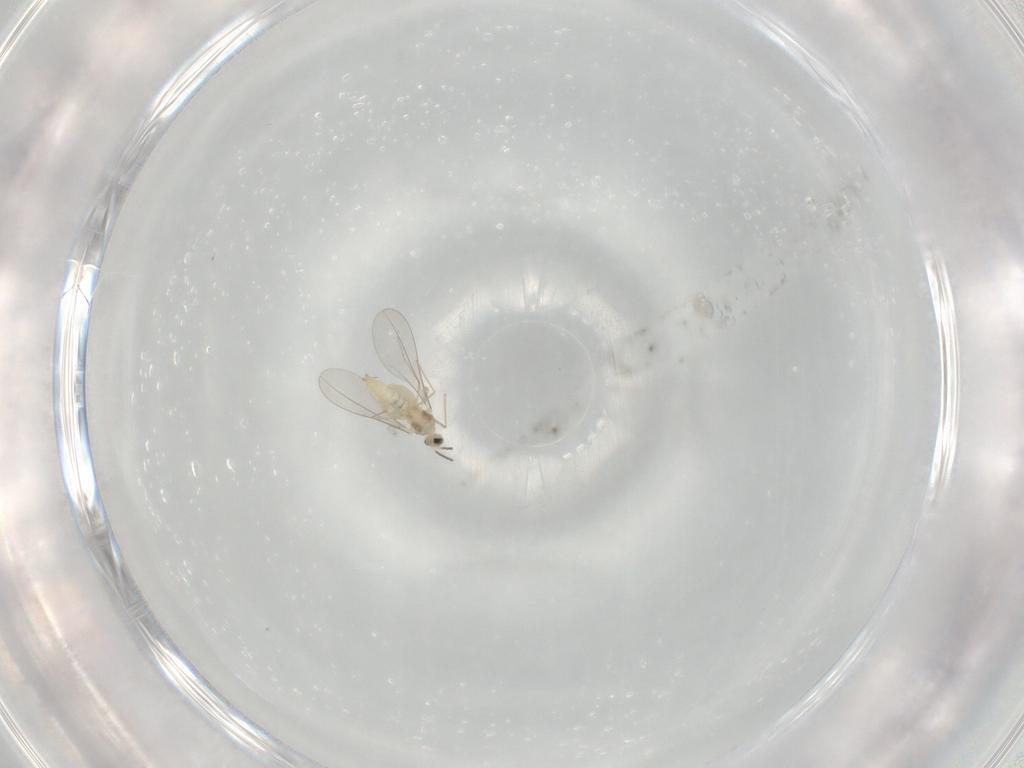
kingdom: Animalia
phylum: Arthropoda
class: Insecta
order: Diptera
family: Cecidomyiidae
